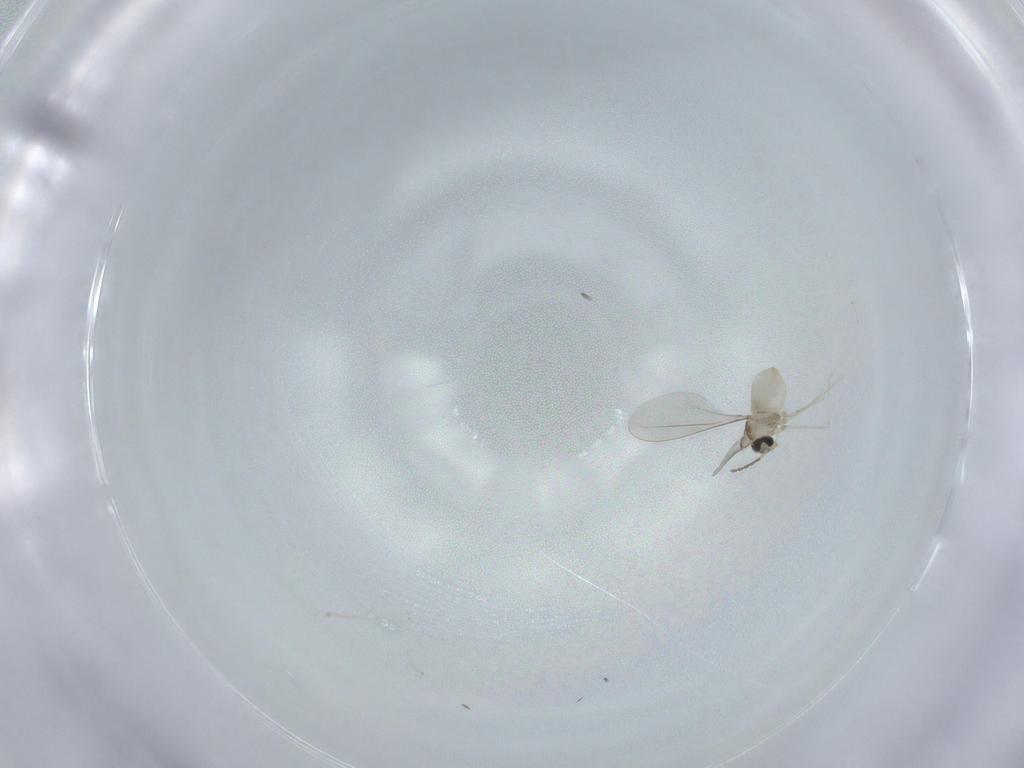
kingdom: Animalia
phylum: Arthropoda
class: Insecta
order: Diptera
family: Cecidomyiidae
